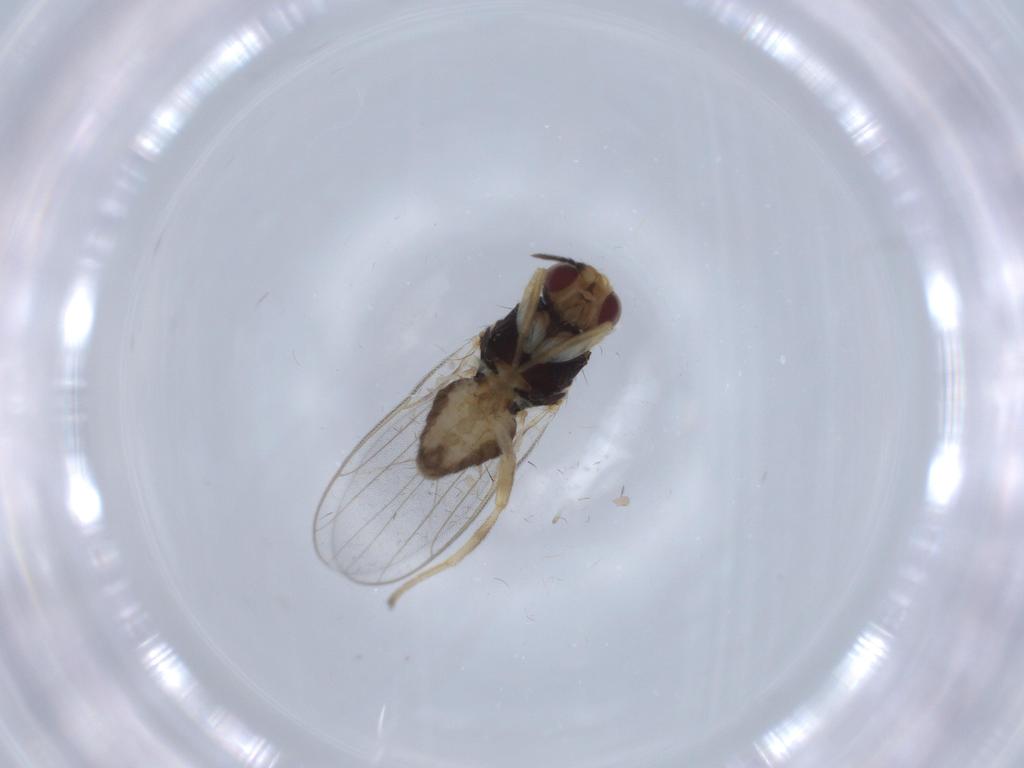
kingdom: Animalia
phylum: Arthropoda
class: Insecta
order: Diptera
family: Chloropidae
